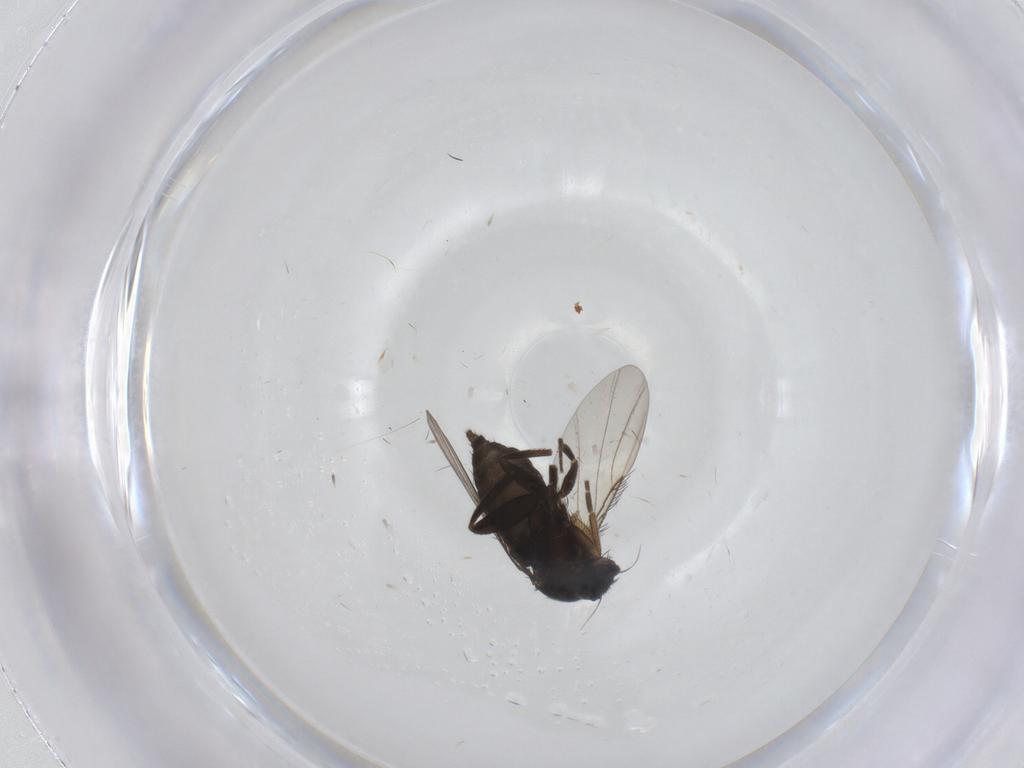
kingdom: Animalia
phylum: Arthropoda
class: Insecta
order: Diptera
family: Phoridae
